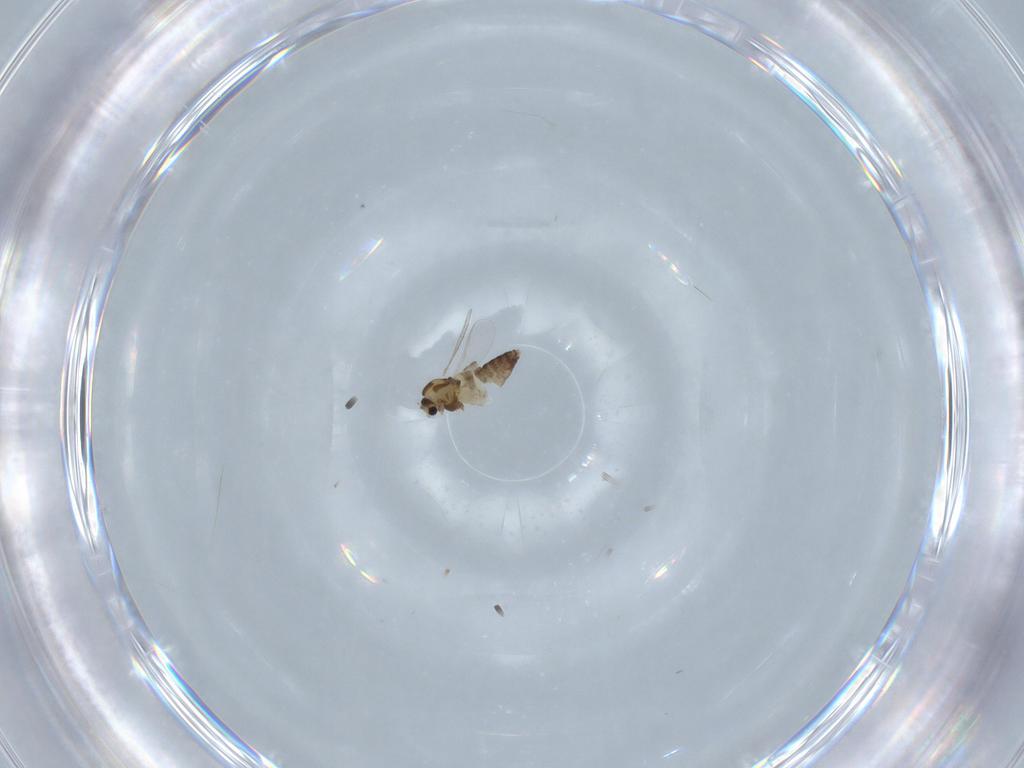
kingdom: Animalia
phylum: Arthropoda
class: Insecta
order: Diptera
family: Chironomidae
